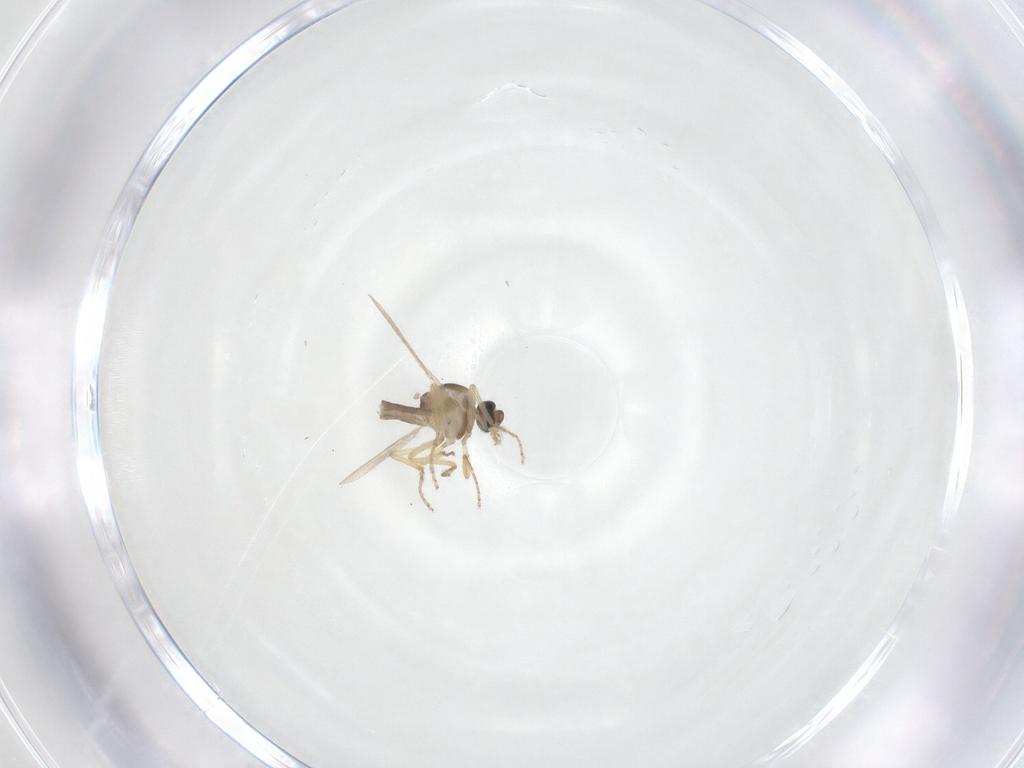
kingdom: Animalia
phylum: Arthropoda
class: Insecta
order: Diptera
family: Ceratopogonidae
